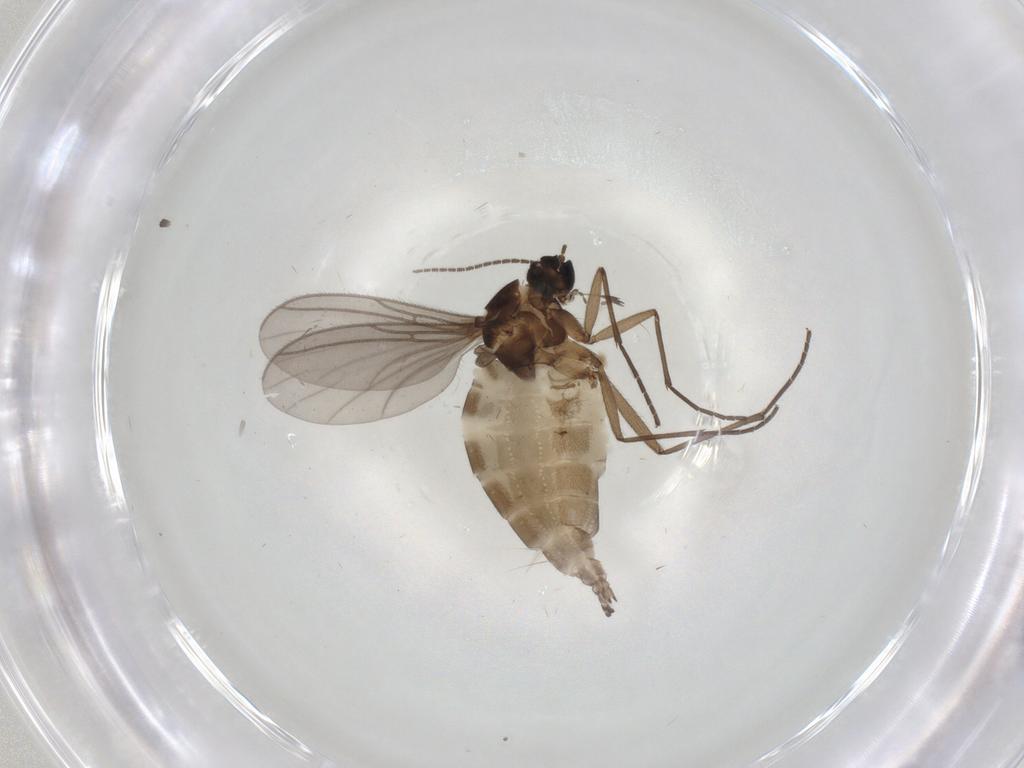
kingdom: Animalia
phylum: Arthropoda
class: Insecta
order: Diptera
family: Sciaridae
